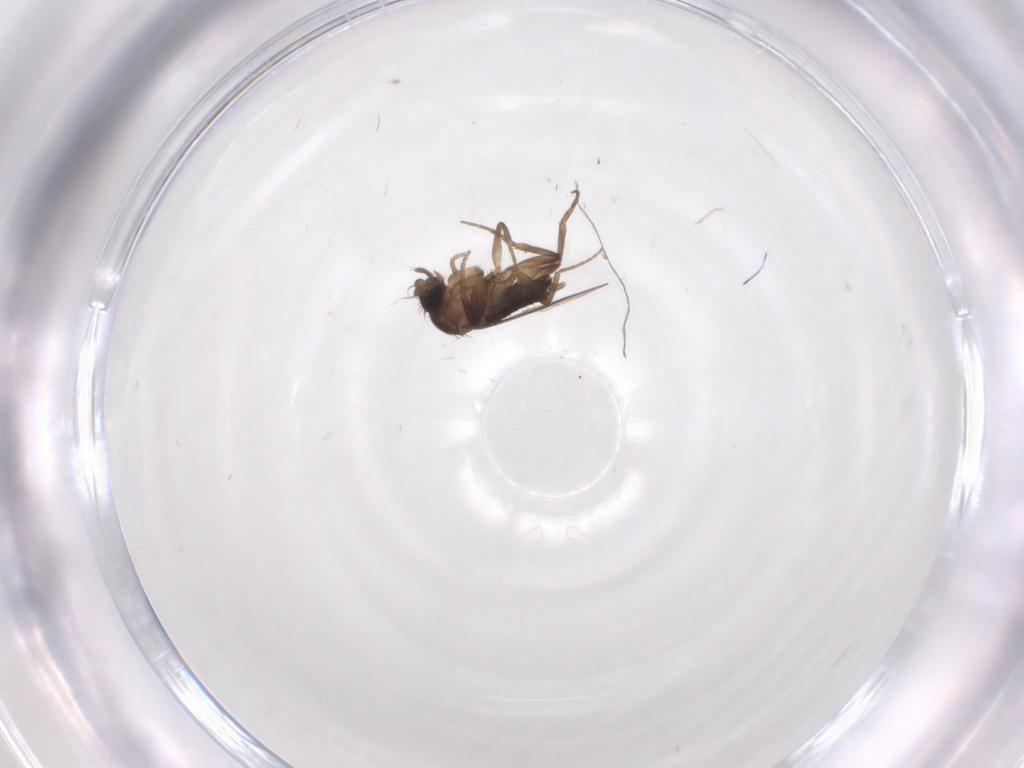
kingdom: Animalia
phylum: Arthropoda
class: Insecta
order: Diptera
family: Phoridae
